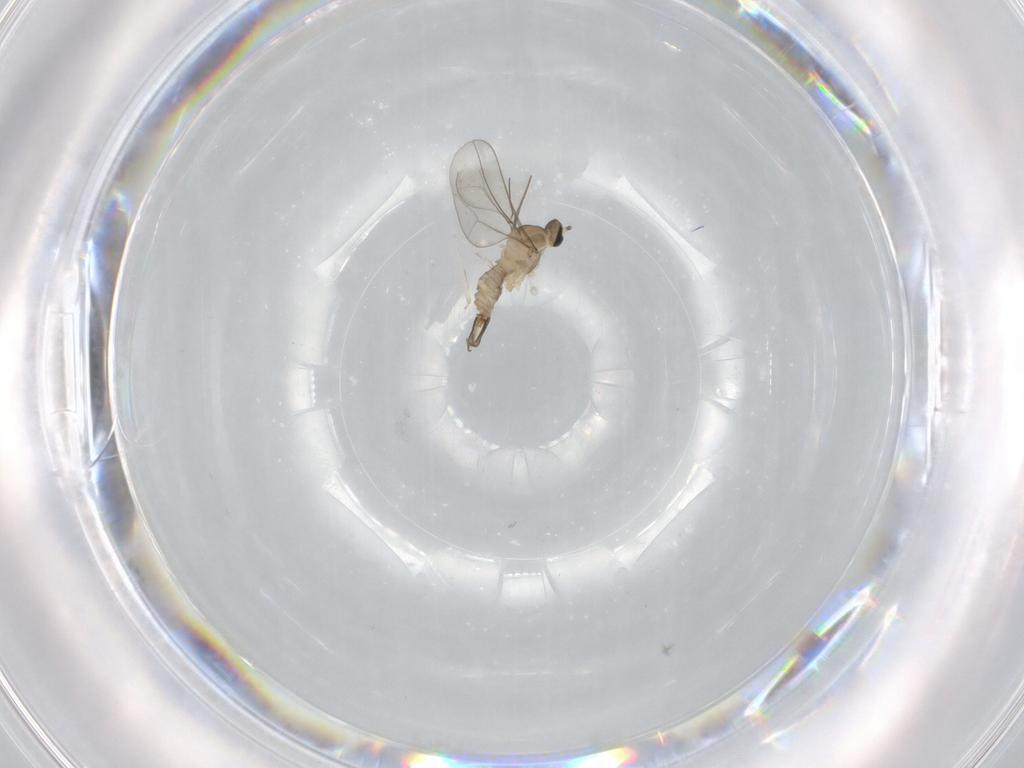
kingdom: Animalia
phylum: Arthropoda
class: Insecta
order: Diptera
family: Cecidomyiidae
